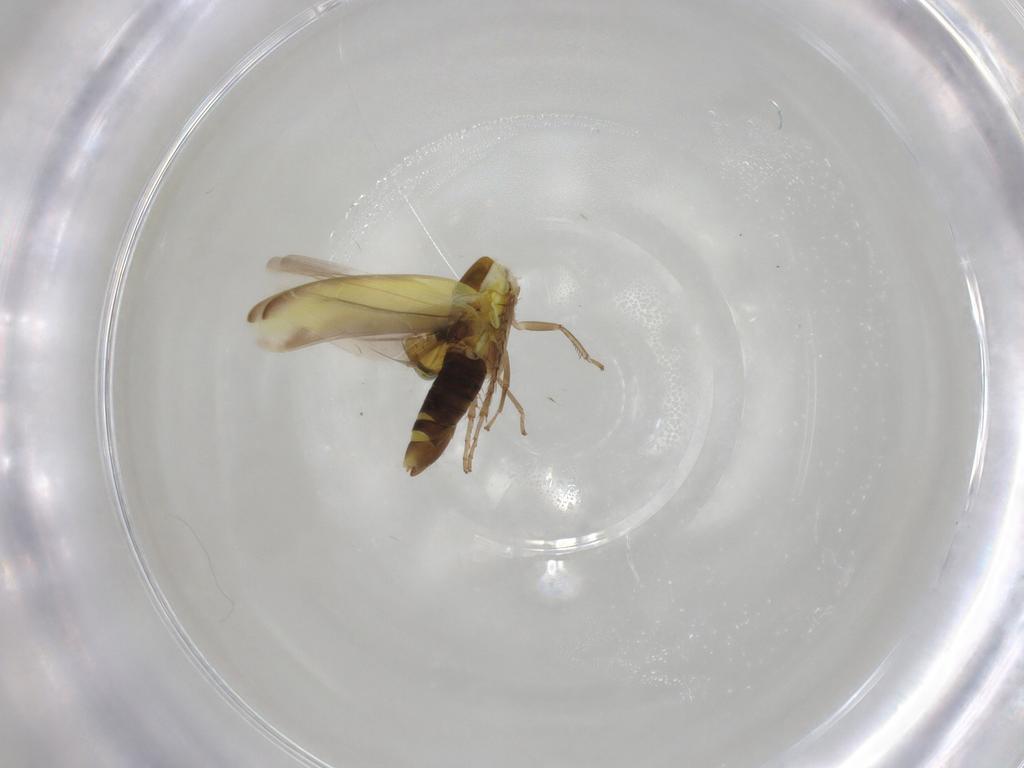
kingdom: Animalia
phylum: Arthropoda
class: Insecta
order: Hemiptera
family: Cicadellidae
